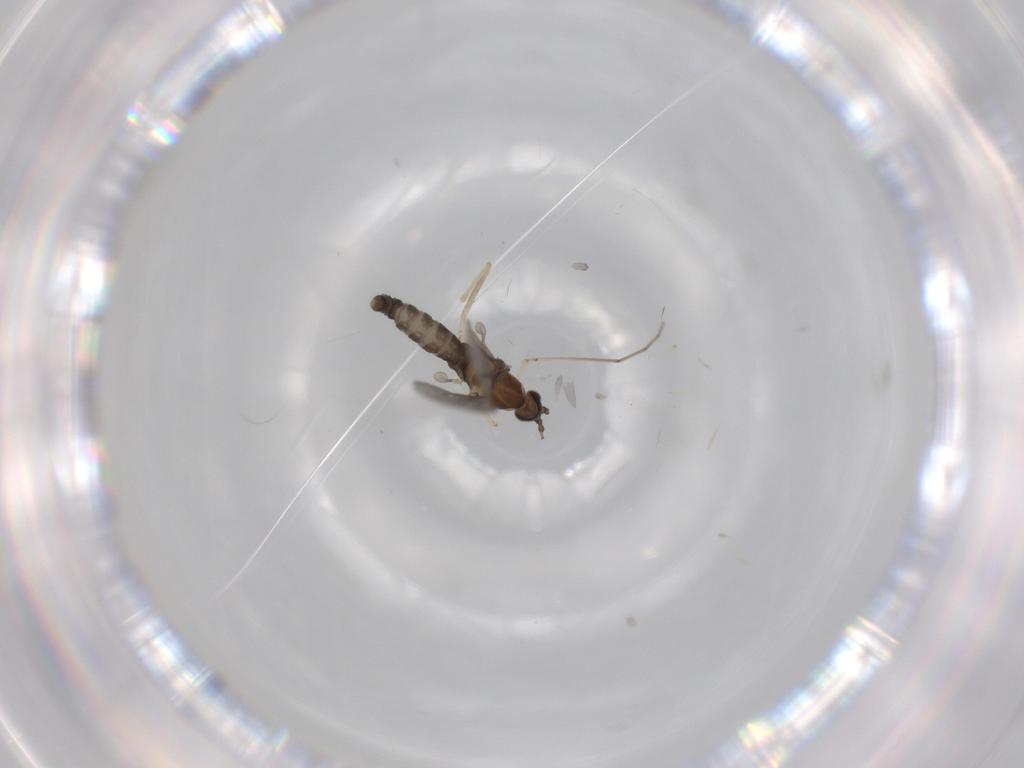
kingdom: Animalia
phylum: Arthropoda
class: Insecta
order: Diptera
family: Cecidomyiidae
